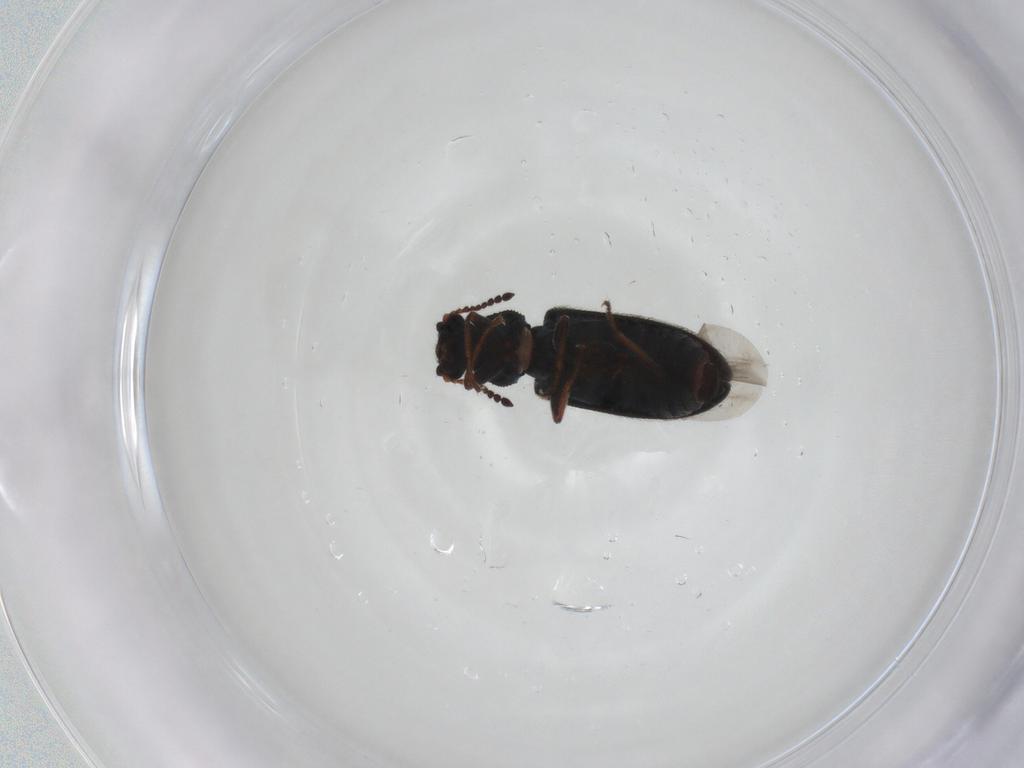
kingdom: Animalia
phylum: Arthropoda
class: Insecta
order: Coleoptera
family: Melyridae
